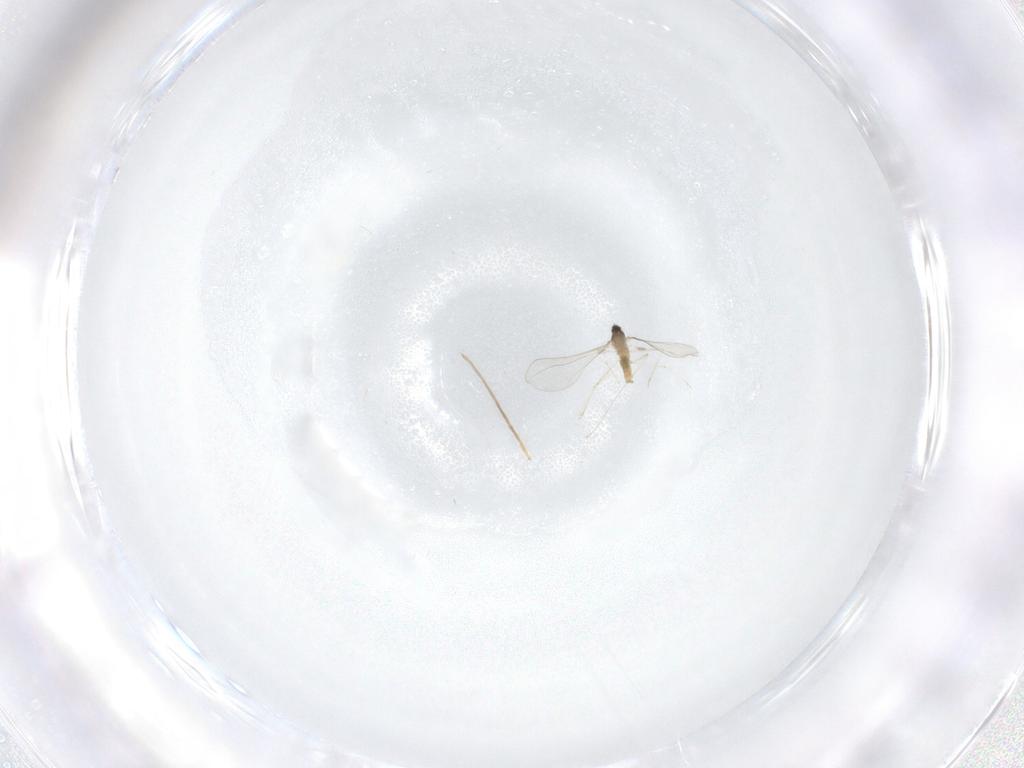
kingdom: Animalia
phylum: Arthropoda
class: Insecta
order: Diptera
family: Cecidomyiidae
